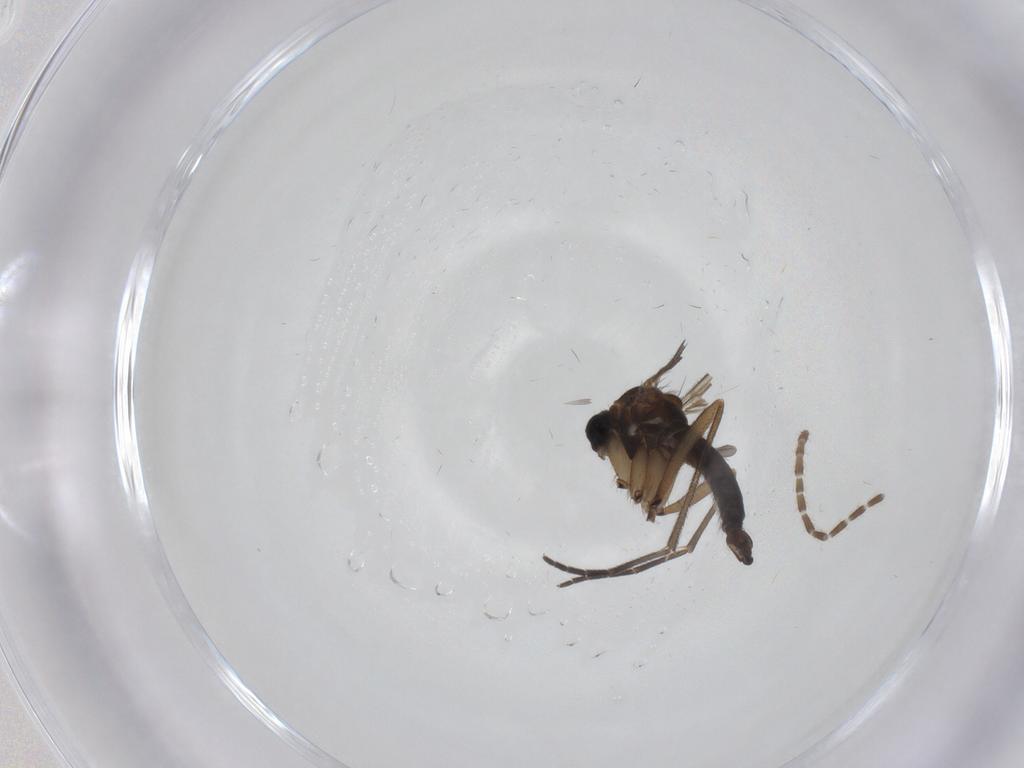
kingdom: Animalia
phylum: Arthropoda
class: Insecta
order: Diptera
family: Sciaridae
